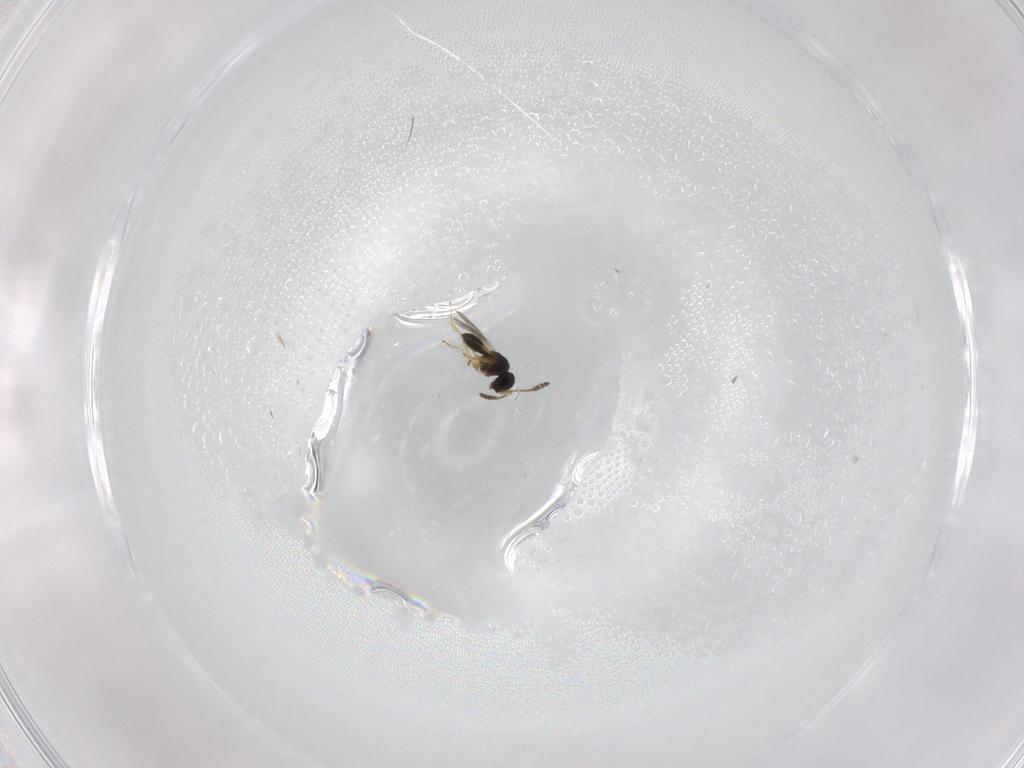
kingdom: Animalia
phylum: Arthropoda
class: Insecta
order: Hymenoptera
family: Scelionidae
